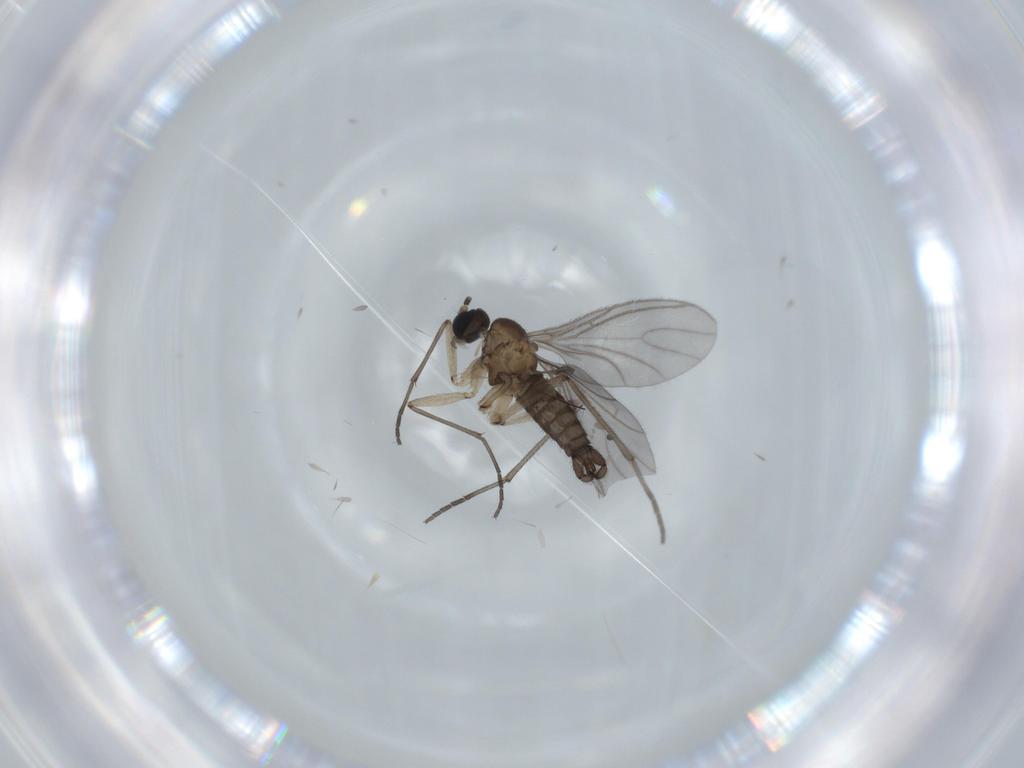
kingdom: Animalia
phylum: Arthropoda
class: Insecta
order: Diptera
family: Sciaridae
